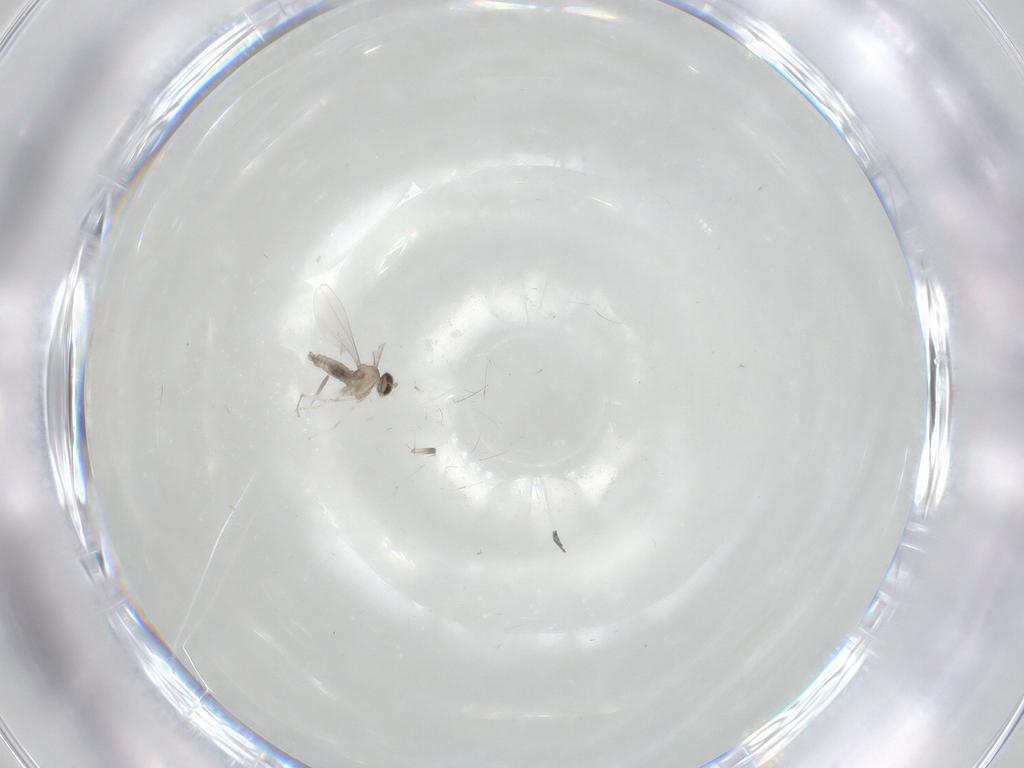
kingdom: Animalia
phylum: Arthropoda
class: Insecta
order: Diptera
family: Cecidomyiidae
